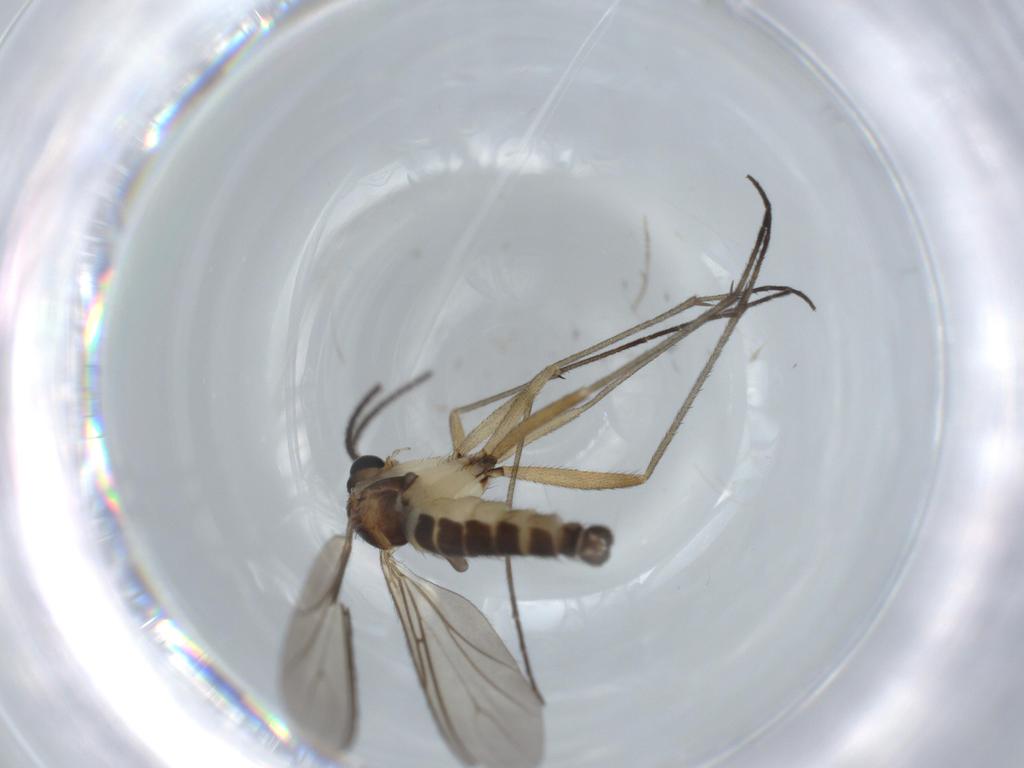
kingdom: Animalia
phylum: Arthropoda
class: Insecta
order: Diptera
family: Sciaridae
